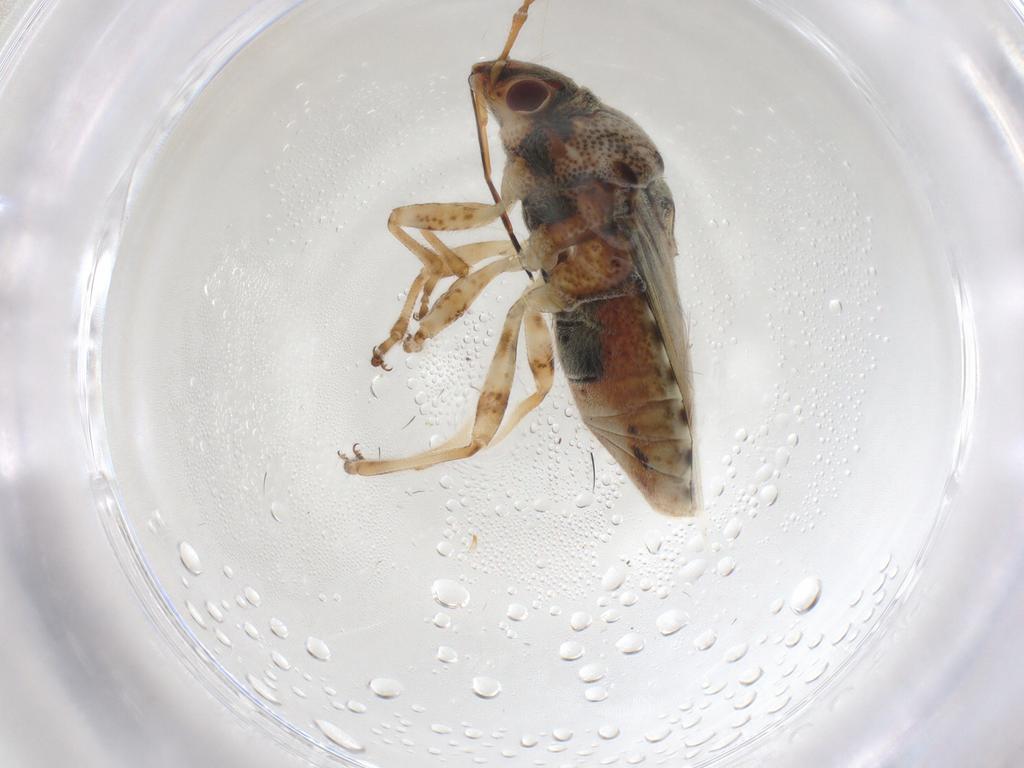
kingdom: Animalia
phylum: Arthropoda
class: Insecta
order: Hemiptera
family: Lygaeidae
